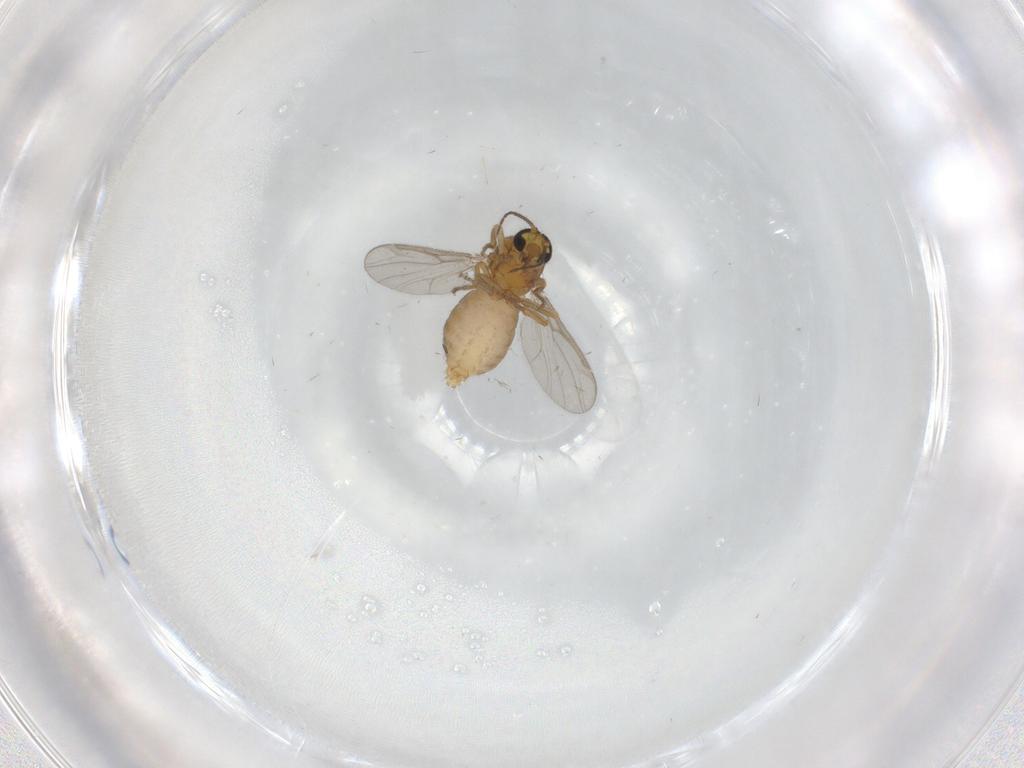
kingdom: Animalia
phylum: Arthropoda
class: Insecta
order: Diptera
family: Ceratopogonidae
